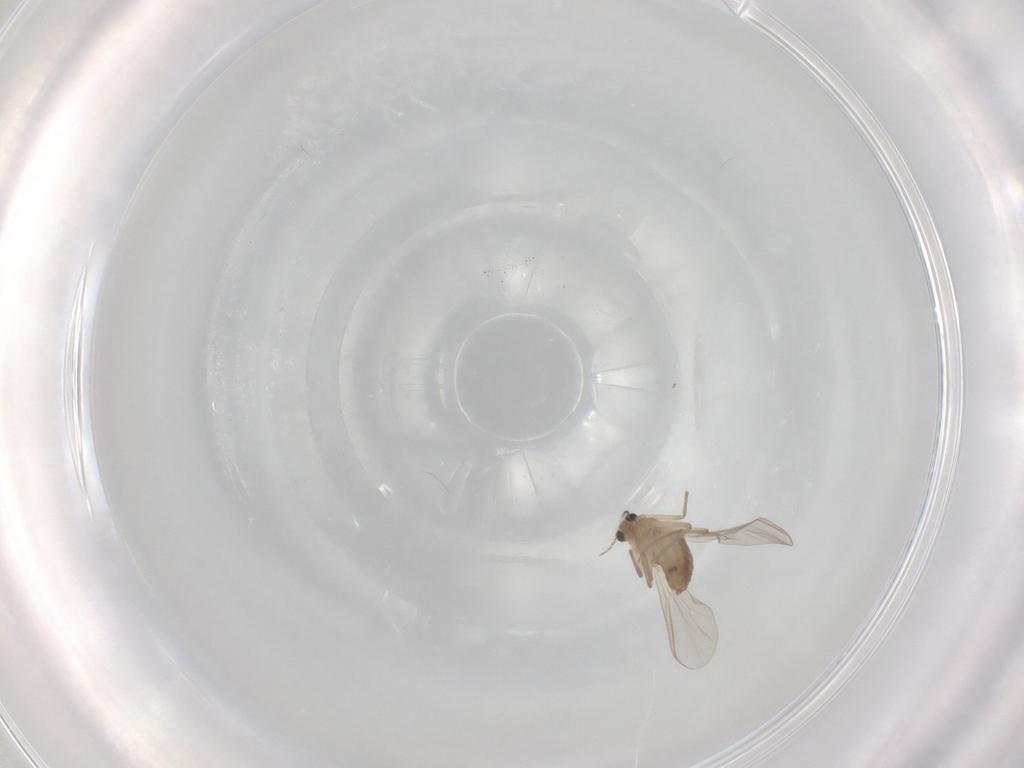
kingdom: Animalia
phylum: Arthropoda
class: Insecta
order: Diptera
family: Chironomidae
